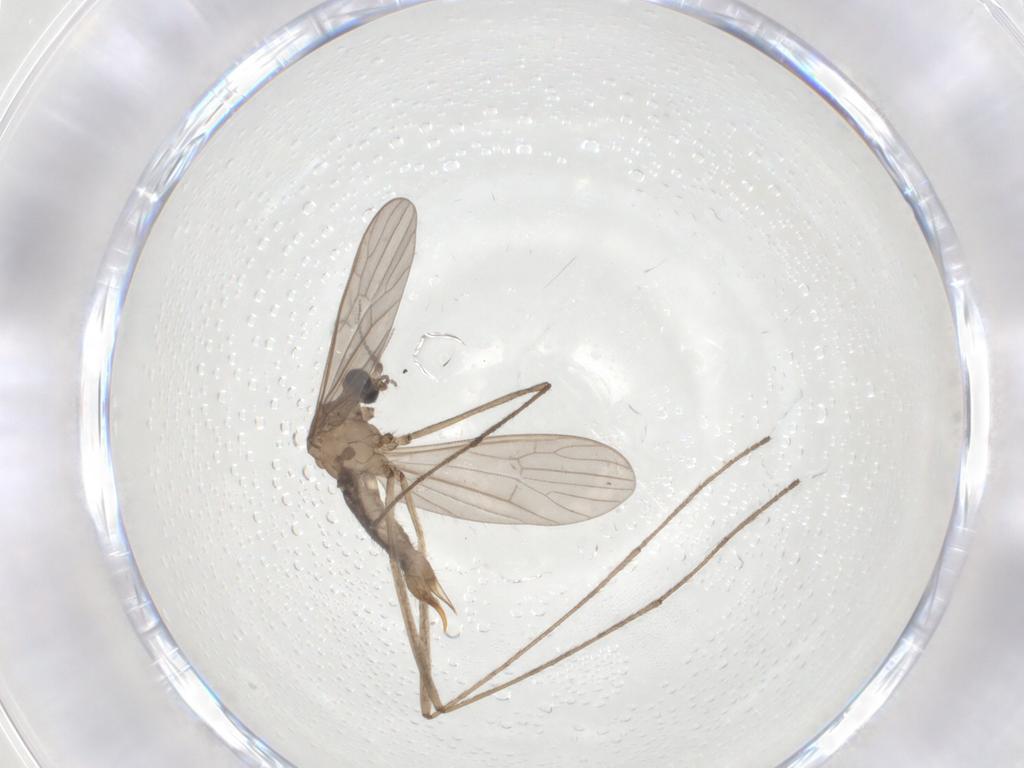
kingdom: Animalia
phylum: Arthropoda
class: Insecta
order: Diptera
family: Limoniidae
